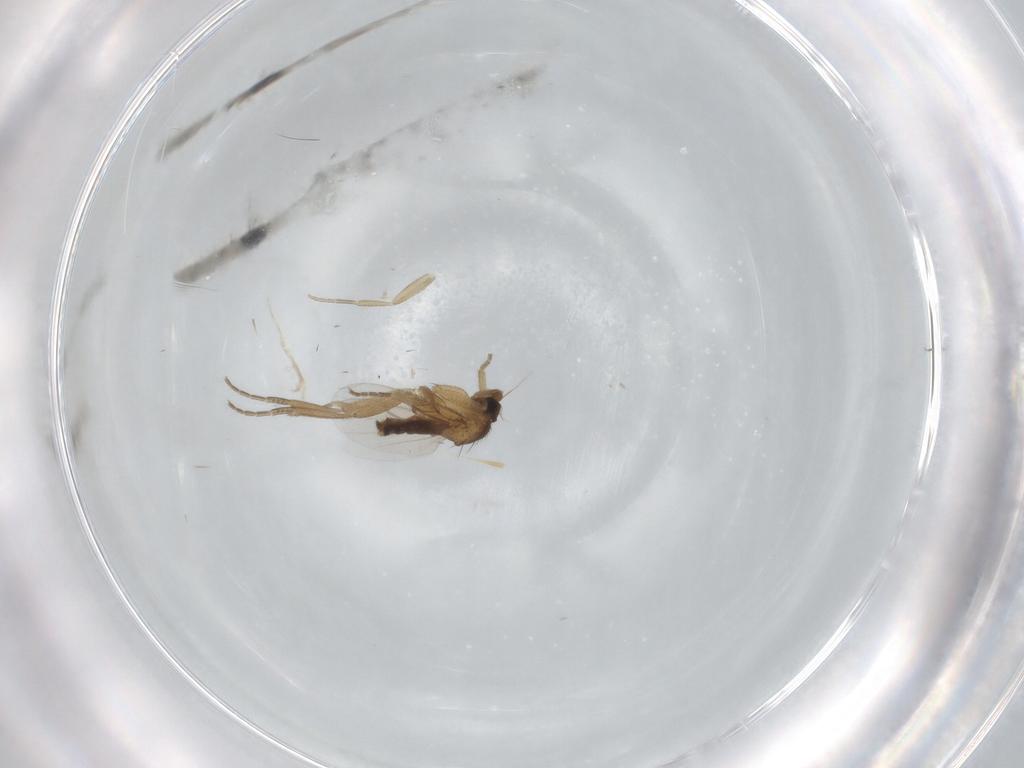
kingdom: Animalia
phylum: Arthropoda
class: Insecta
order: Diptera
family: Phoridae
